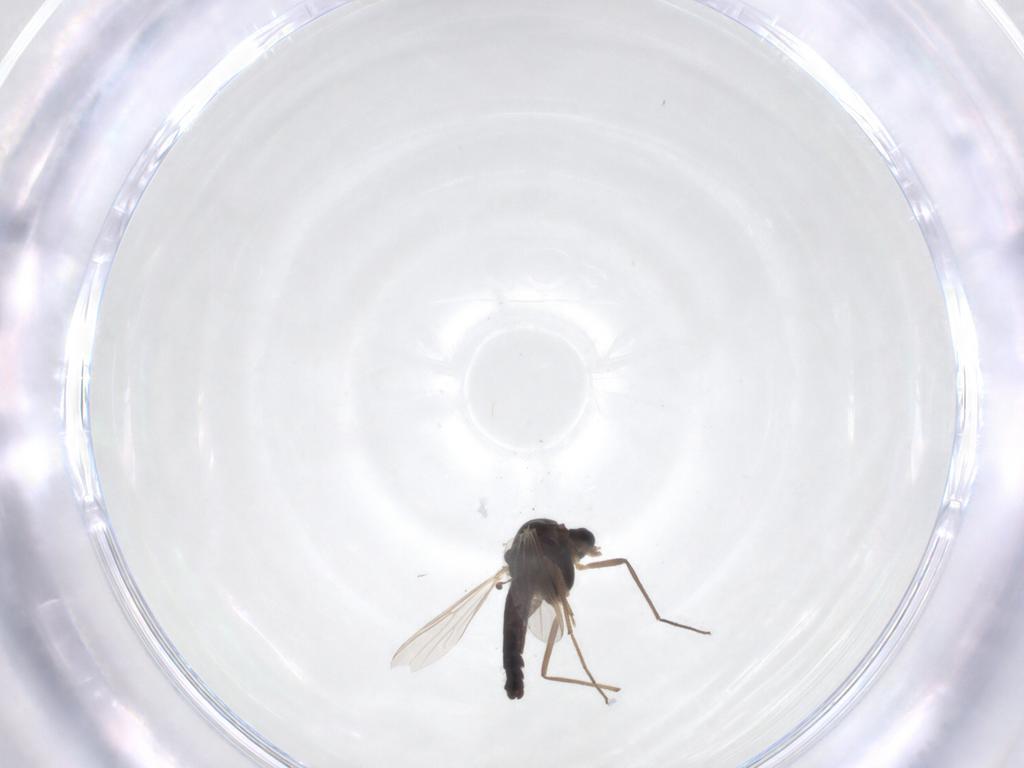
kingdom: Animalia
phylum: Arthropoda
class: Insecta
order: Diptera
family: Chironomidae
